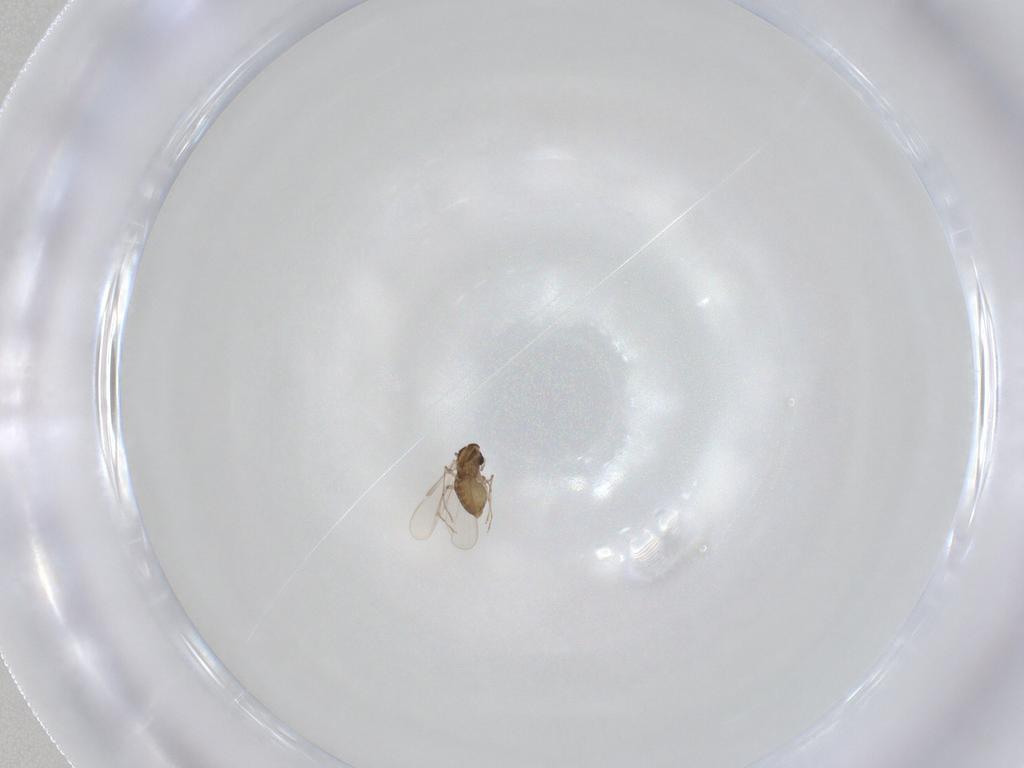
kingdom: Animalia
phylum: Arthropoda
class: Insecta
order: Diptera
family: Chironomidae
